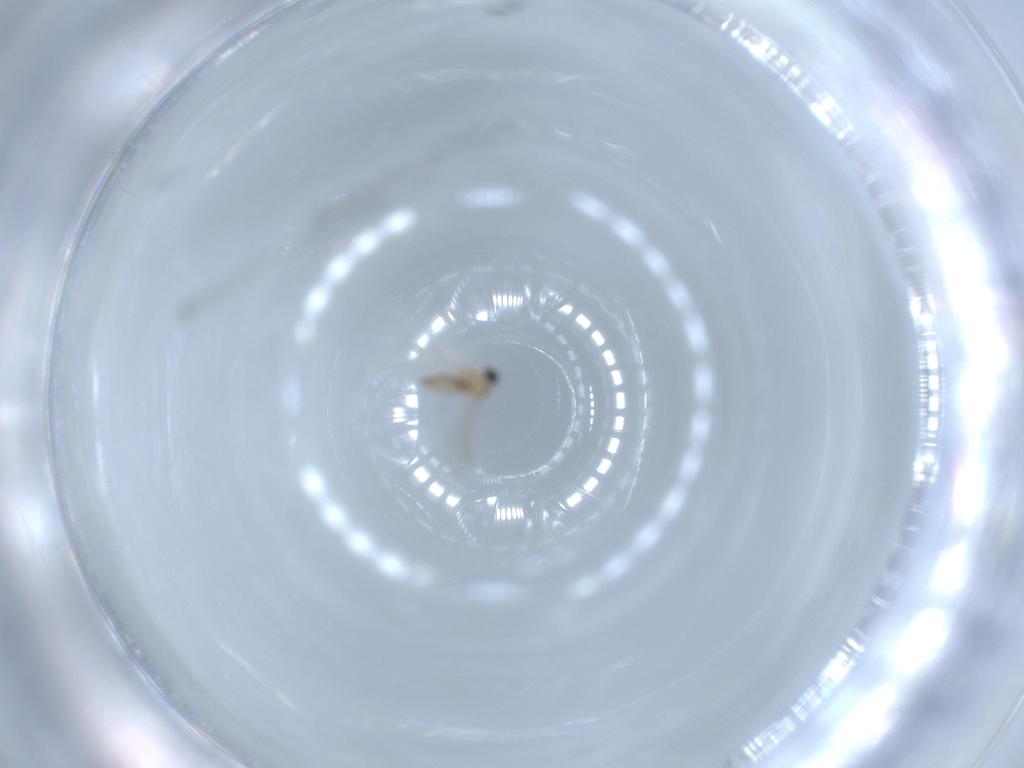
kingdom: Animalia
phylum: Arthropoda
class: Insecta
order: Diptera
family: Cecidomyiidae
